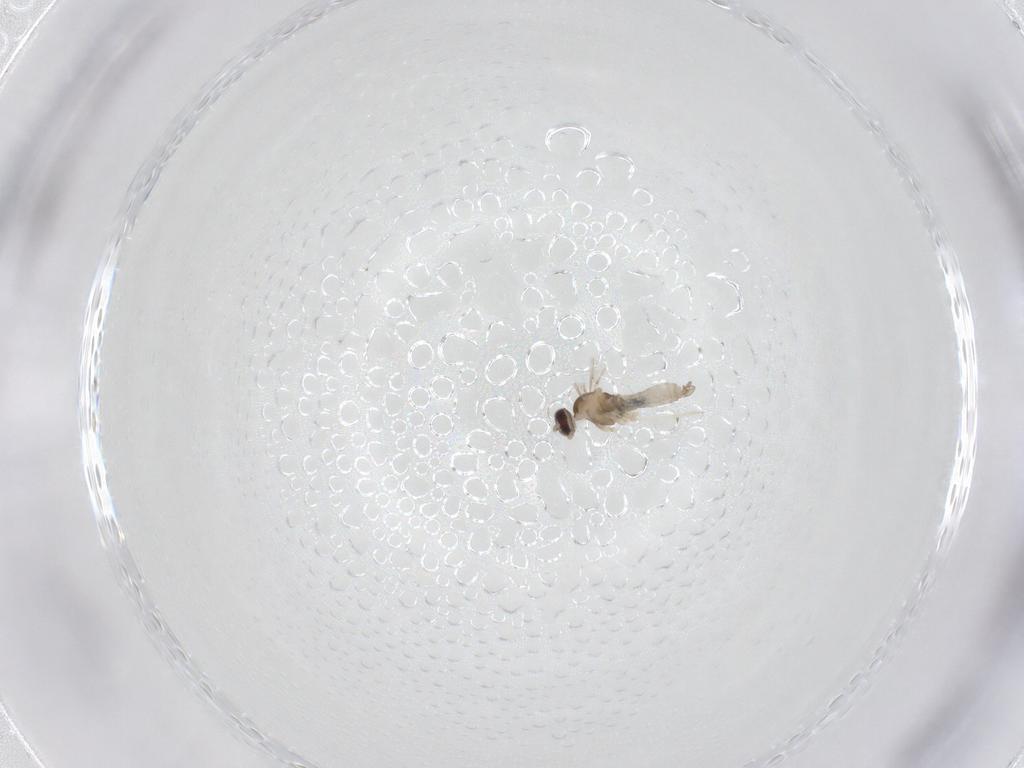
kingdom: Animalia
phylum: Arthropoda
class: Insecta
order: Diptera
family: Cecidomyiidae
